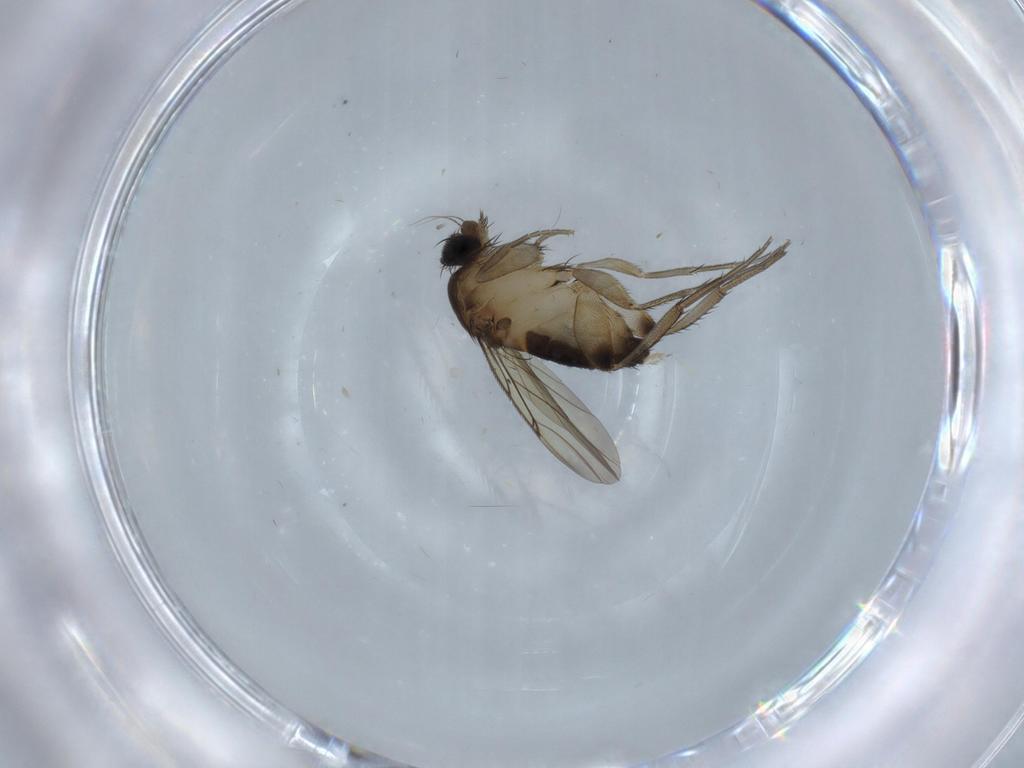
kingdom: Animalia
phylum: Arthropoda
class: Insecta
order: Diptera
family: Phoridae
